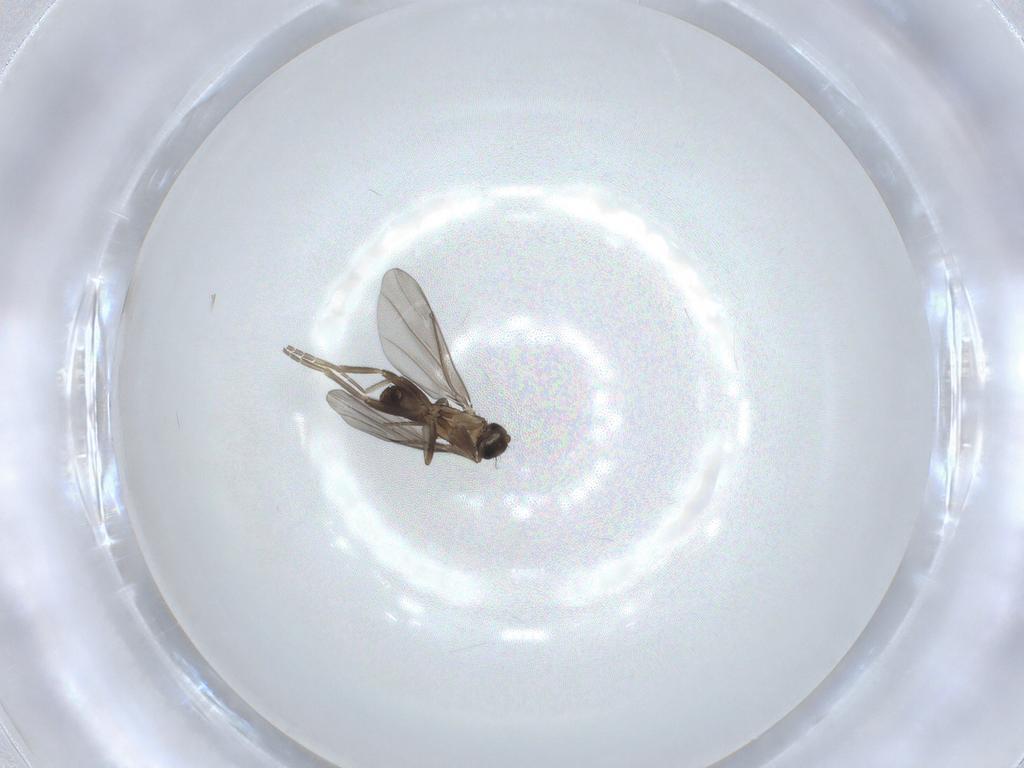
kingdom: Animalia
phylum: Arthropoda
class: Insecta
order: Diptera
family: Phoridae
